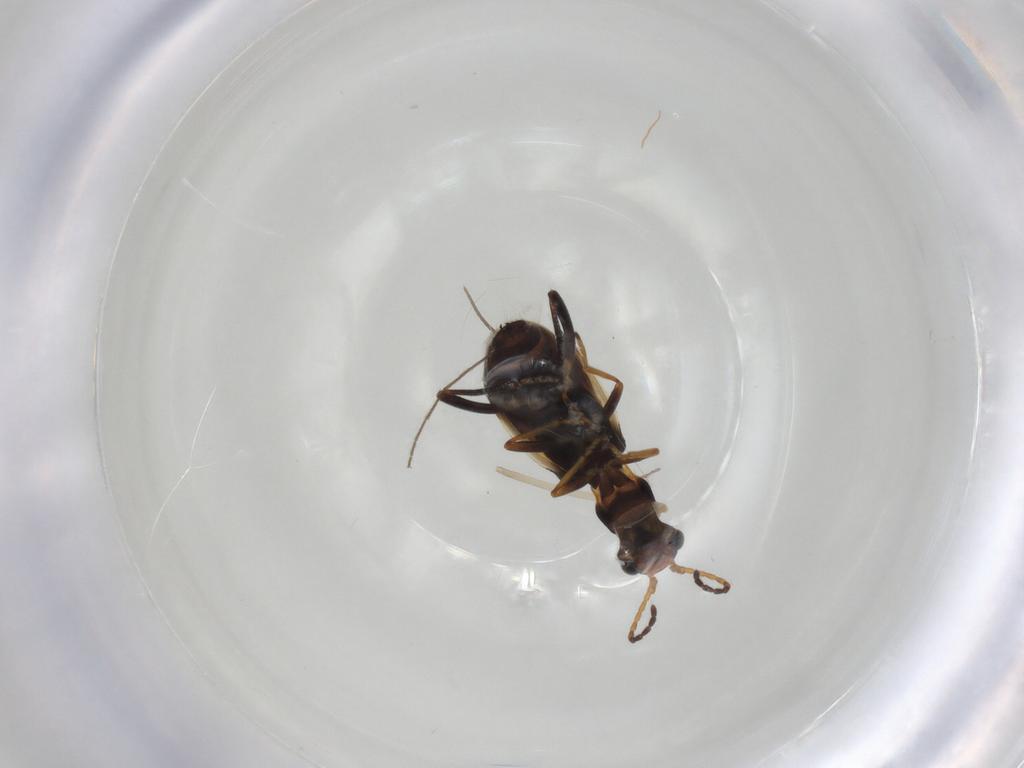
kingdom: Animalia
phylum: Arthropoda
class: Insecta
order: Coleoptera
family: Melyridae
